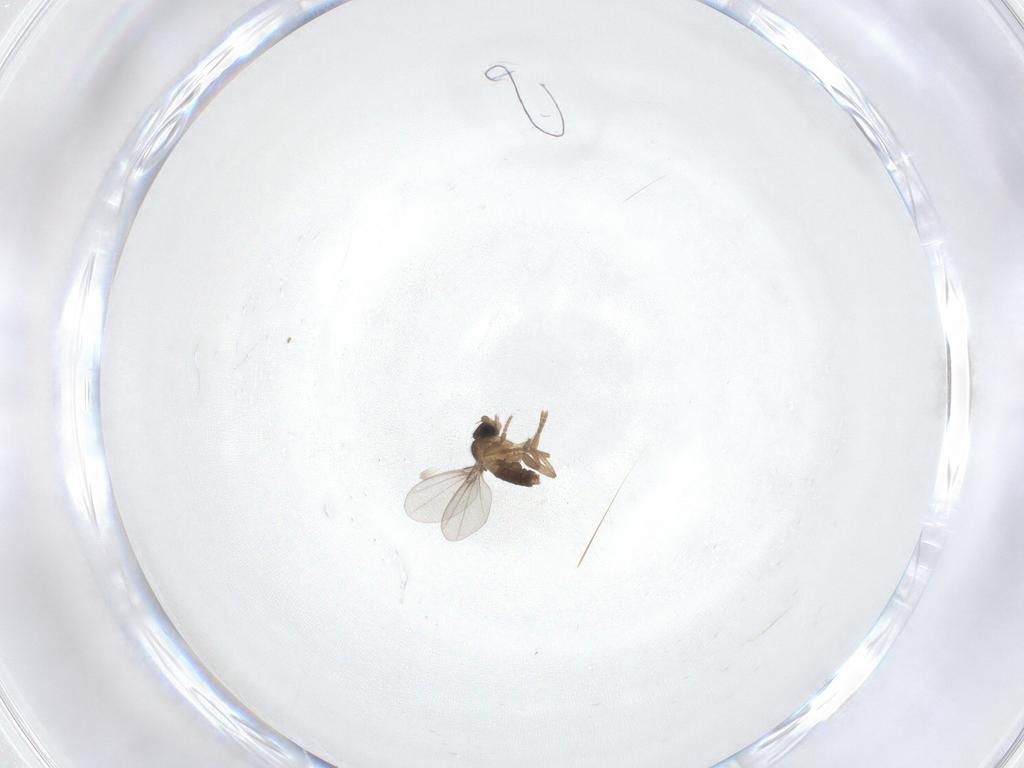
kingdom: Animalia
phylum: Arthropoda
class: Insecta
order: Diptera
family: Phoridae
